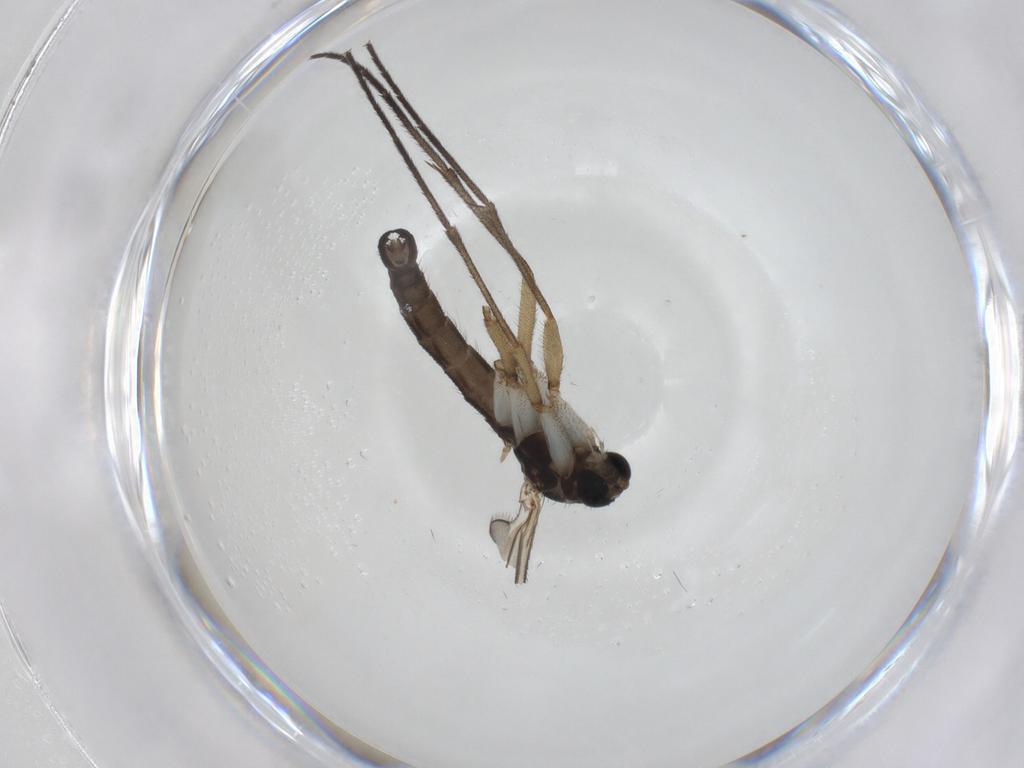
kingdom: Animalia
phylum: Arthropoda
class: Insecta
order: Diptera
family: Sciaridae
